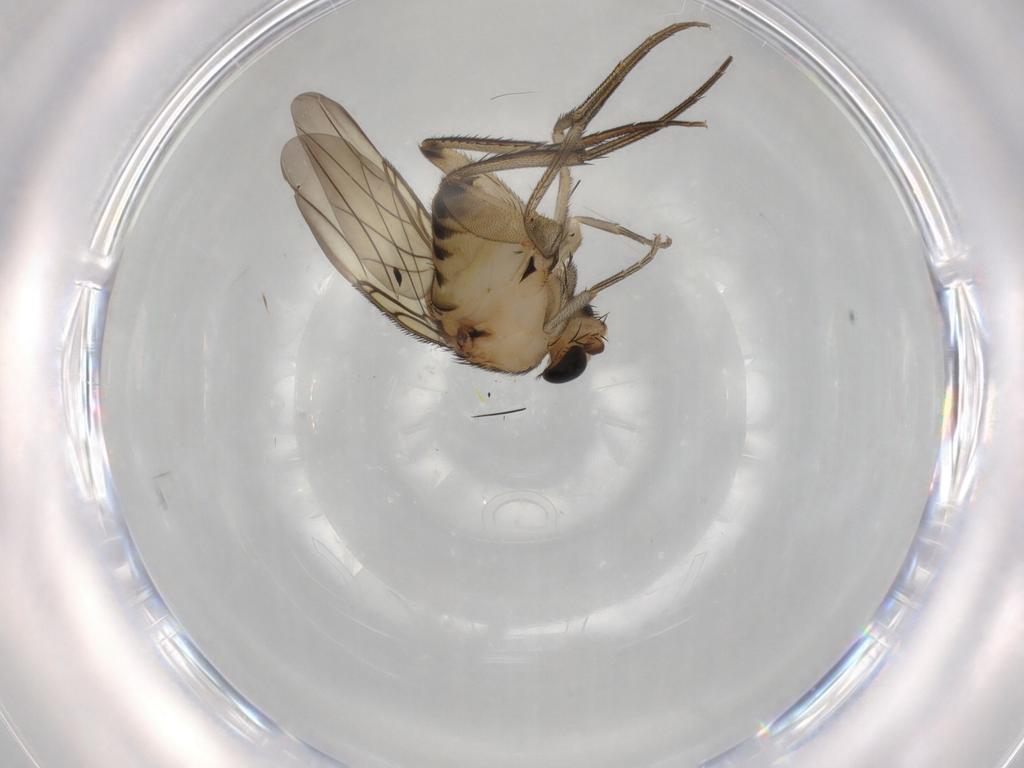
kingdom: Animalia
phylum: Arthropoda
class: Insecta
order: Diptera
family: Phoridae
